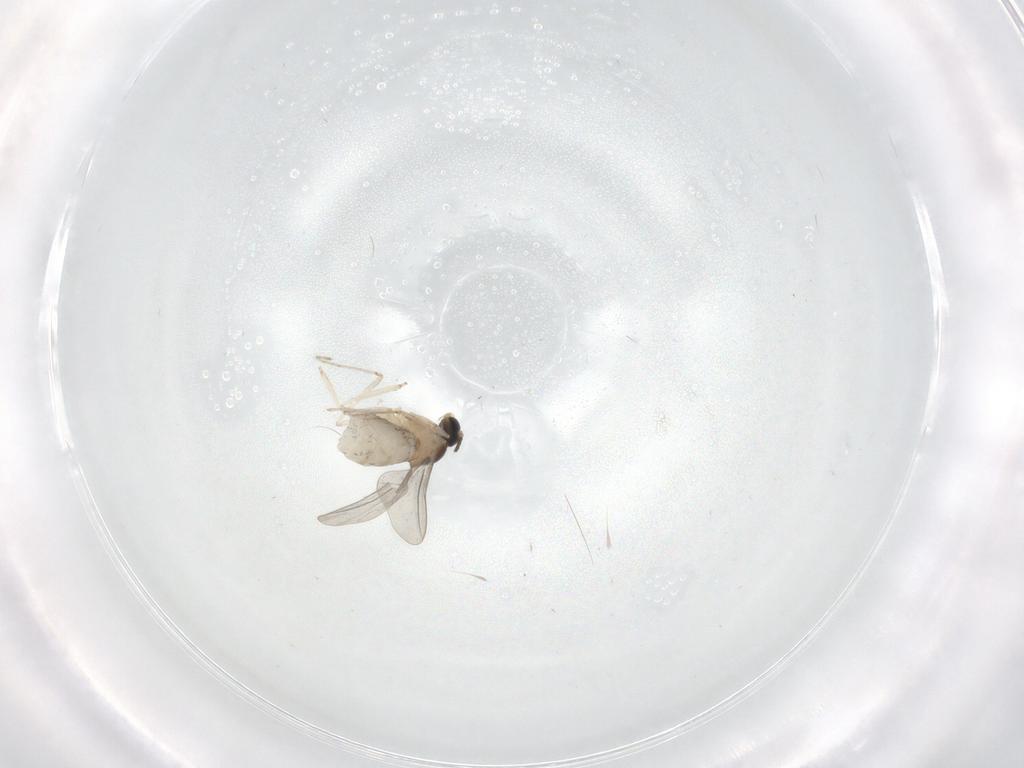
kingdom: Animalia
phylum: Arthropoda
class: Insecta
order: Diptera
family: Cecidomyiidae
